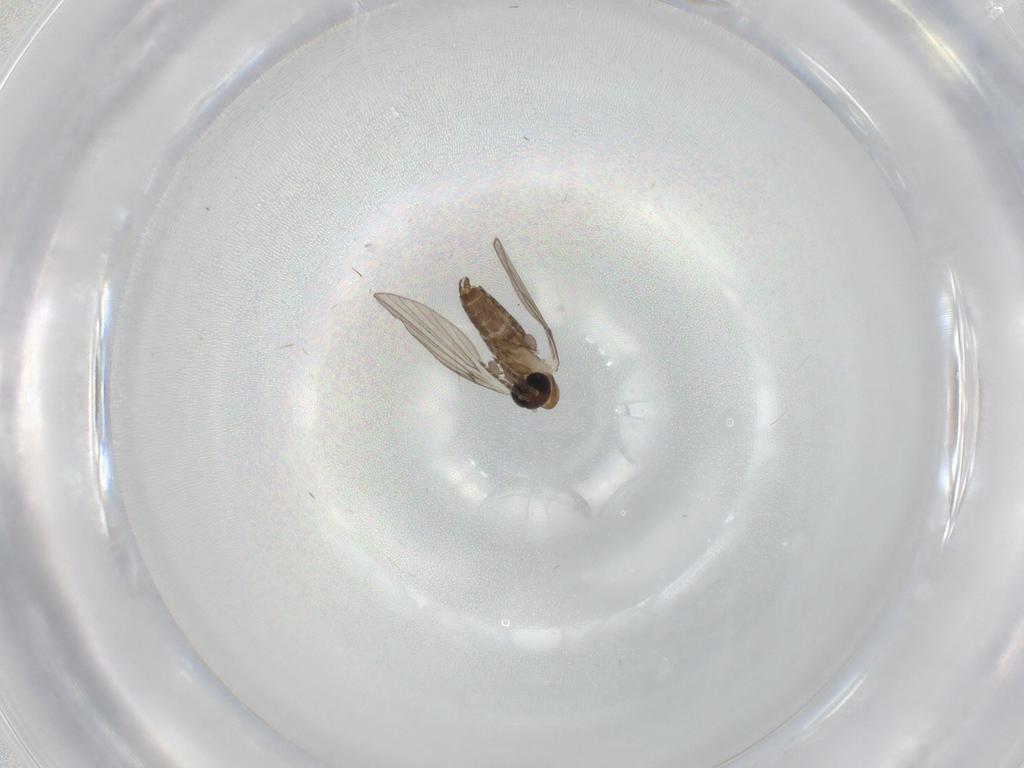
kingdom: Animalia
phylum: Arthropoda
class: Insecta
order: Diptera
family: Psychodidae
